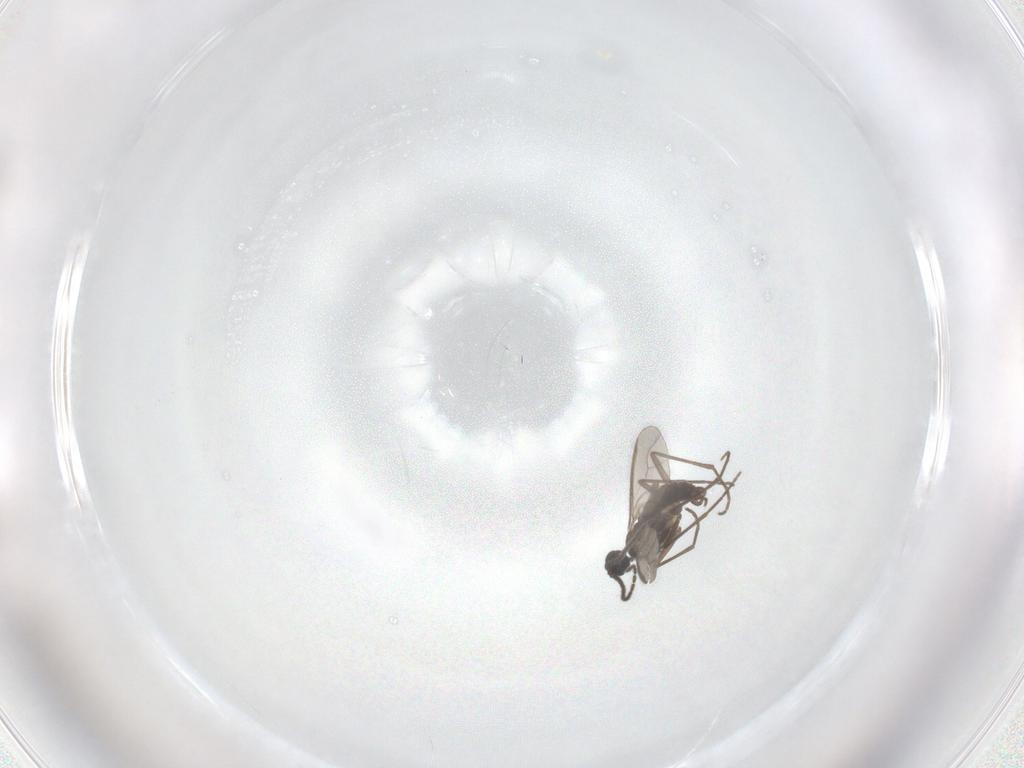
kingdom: Animalia
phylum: Arthropoda
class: Insecta
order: Diptera
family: Sciaridae
